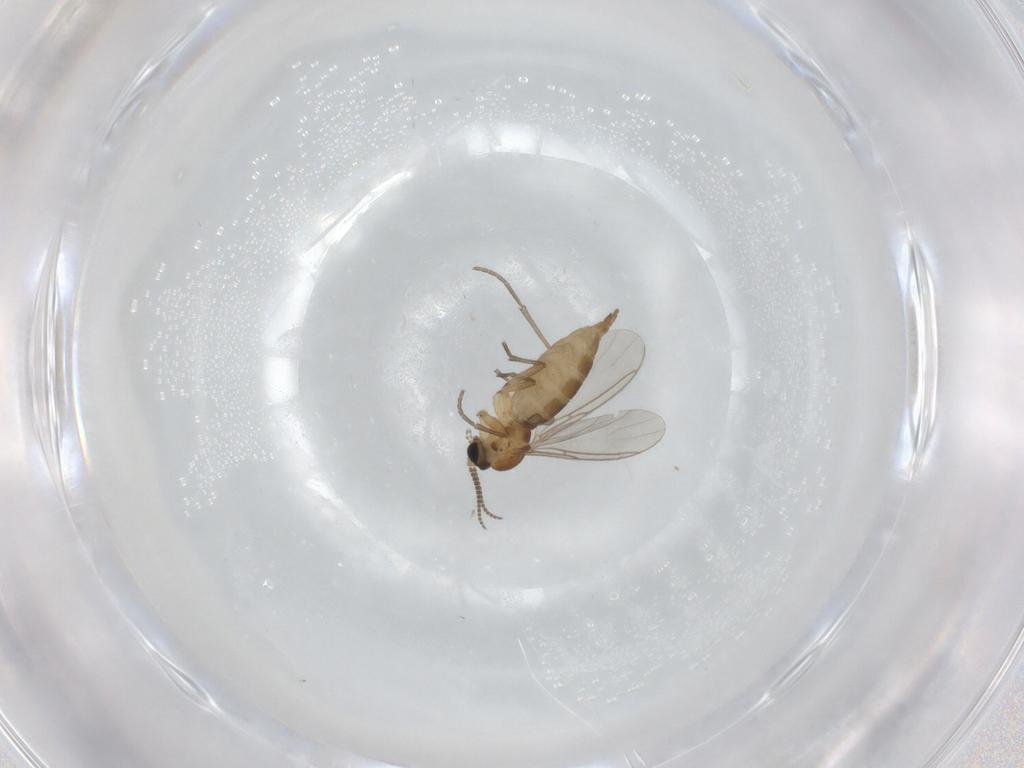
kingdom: Animalia
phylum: Arthropoda
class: Insecta
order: Diptera
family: Sciaridae
